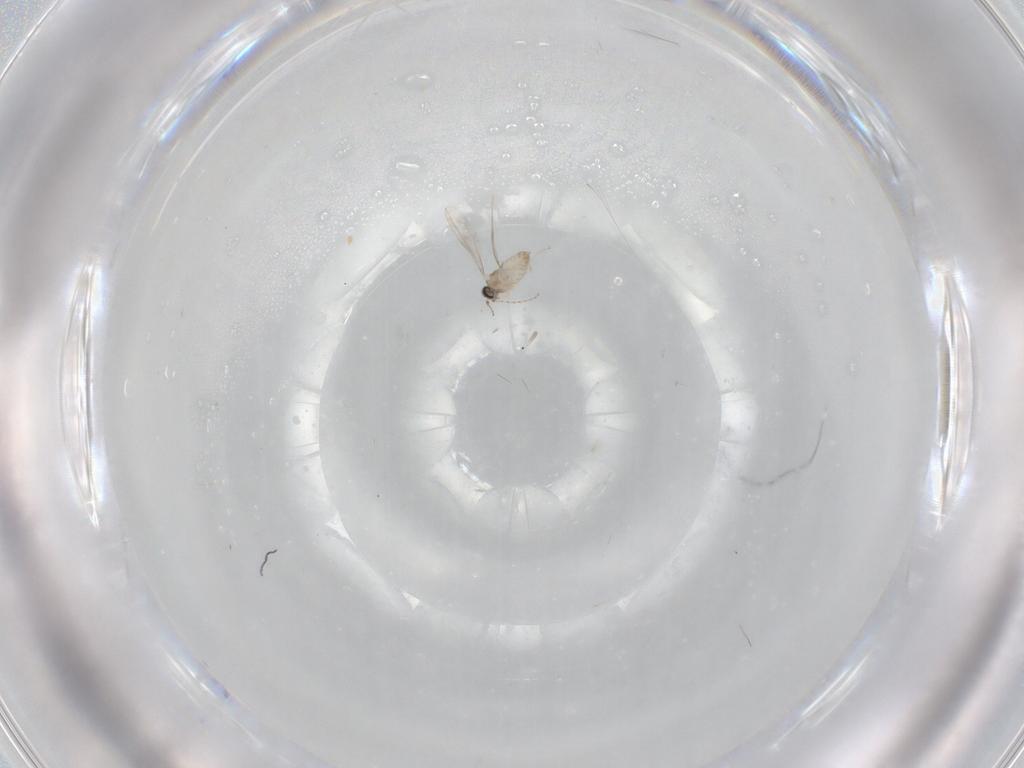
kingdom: Animalia
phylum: Arthropoda
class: Insecta
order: Diptera
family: Cecidomyiidae
